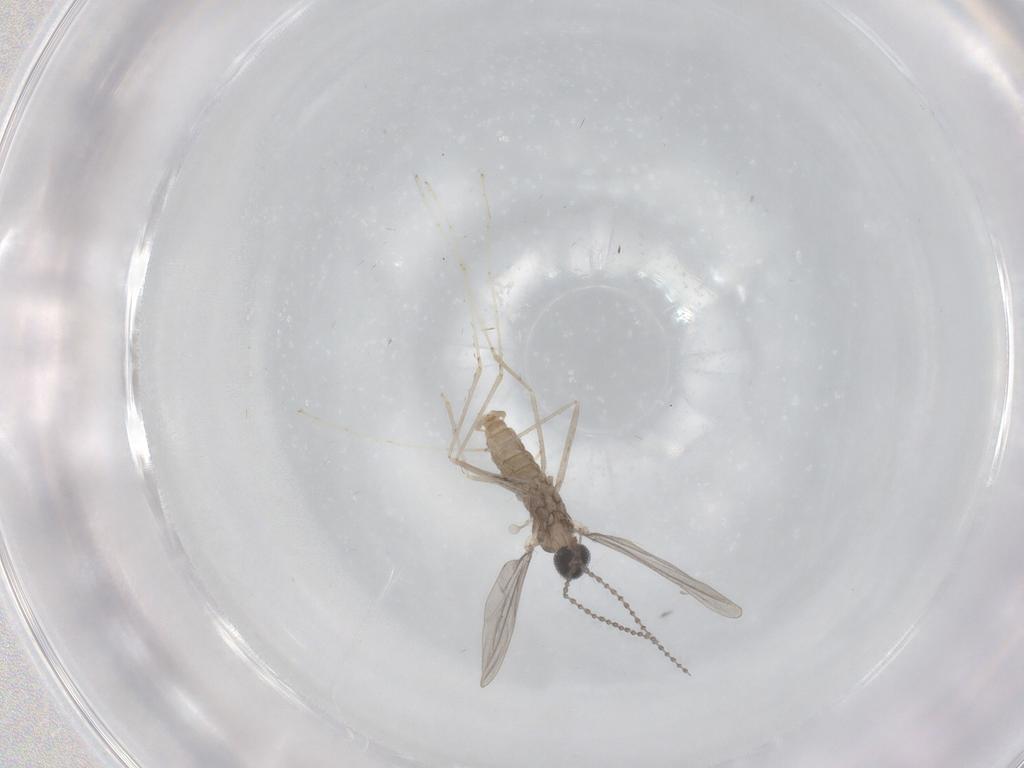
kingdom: Animalia
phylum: Arthropoda
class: Insecta
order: Diptera
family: Cecidomyiidae
